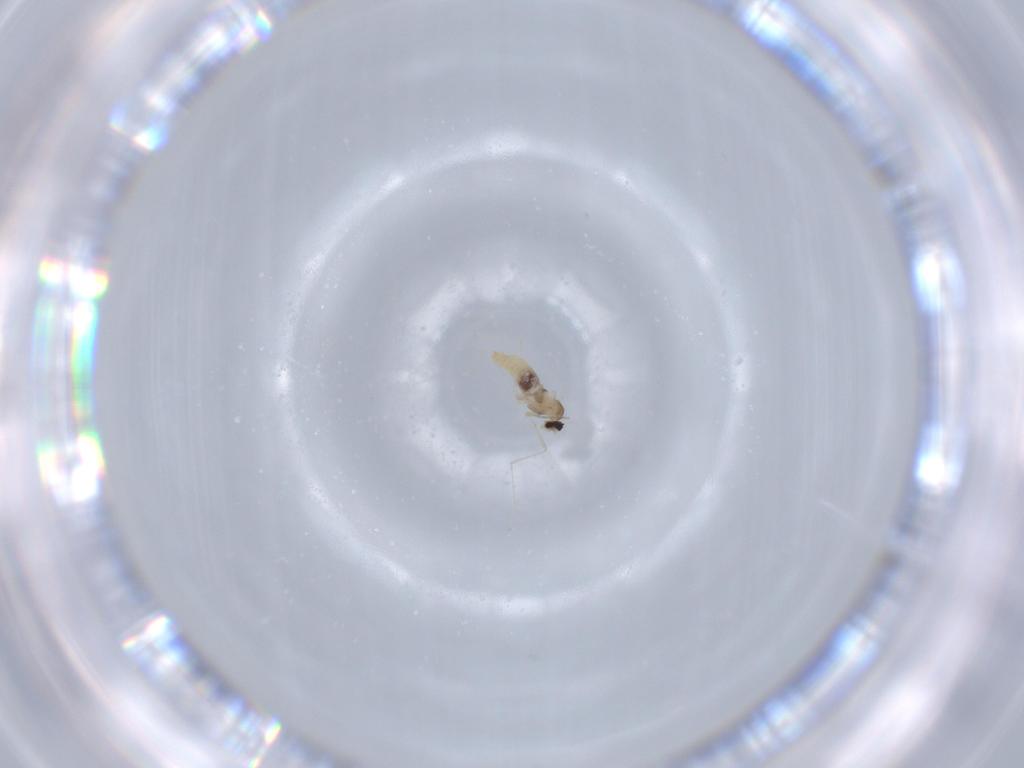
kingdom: Animalia
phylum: Arthropoda
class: Insecta
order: Diptera
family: Cecidomyiidae
